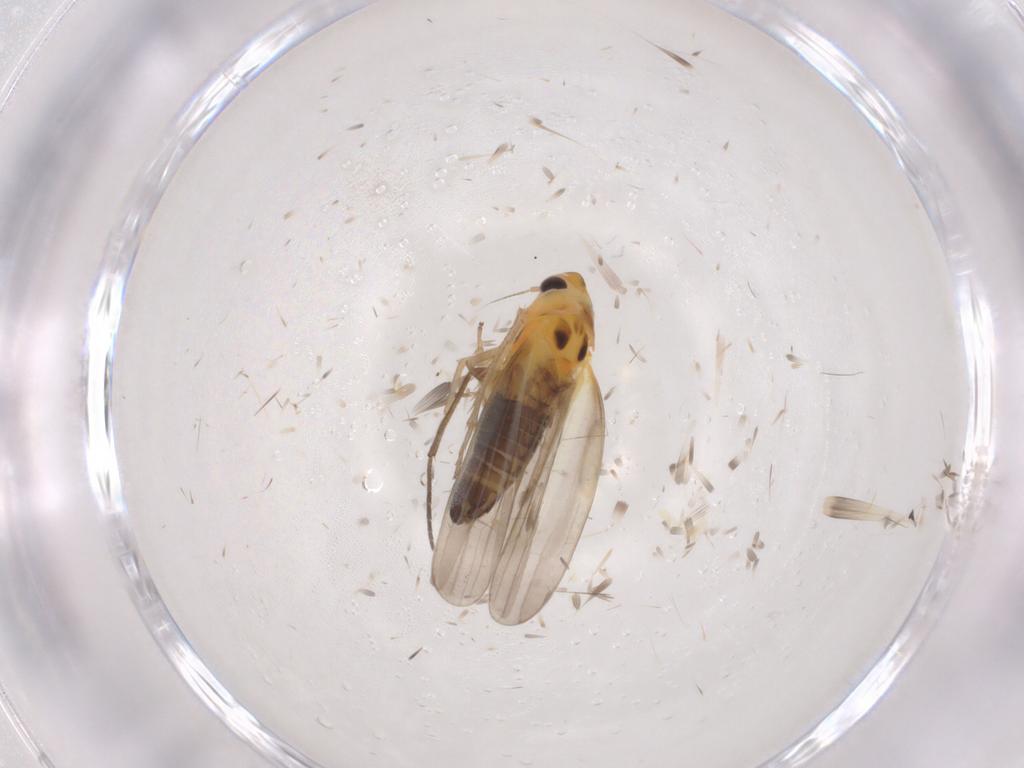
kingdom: Animalia
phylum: Arthropoda
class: Insecta
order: Hemiptera
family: Cicadellidae
